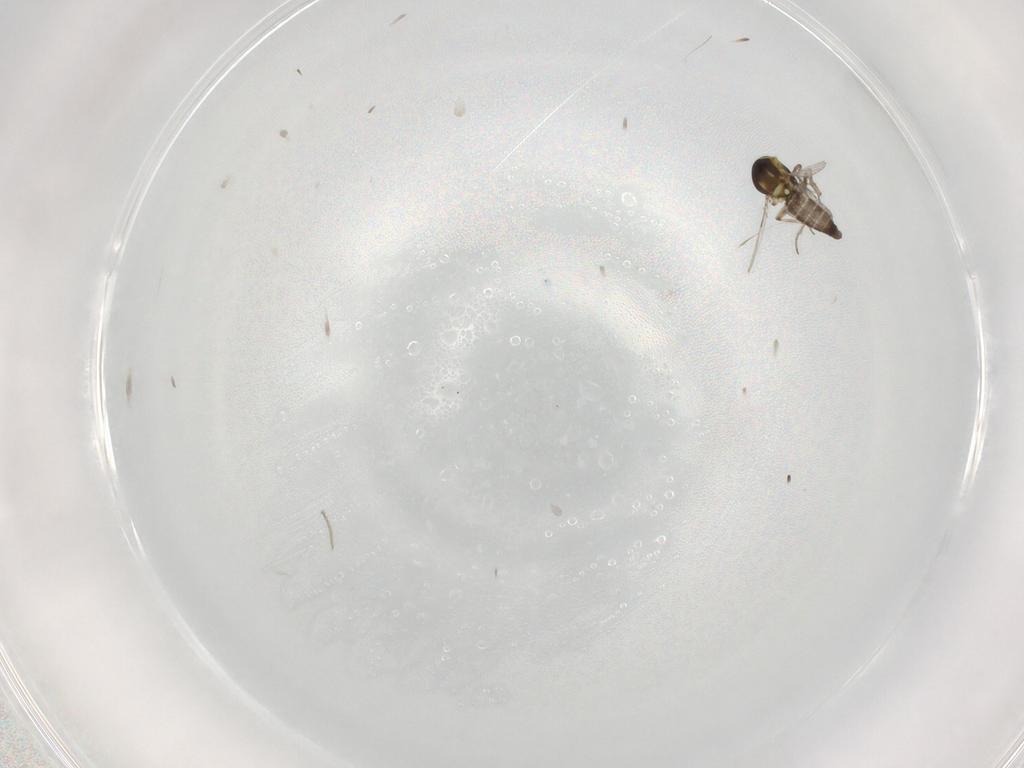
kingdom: Animalia
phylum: Arthropoda
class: Insecta
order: Diptera
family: Ceratopogonidae
